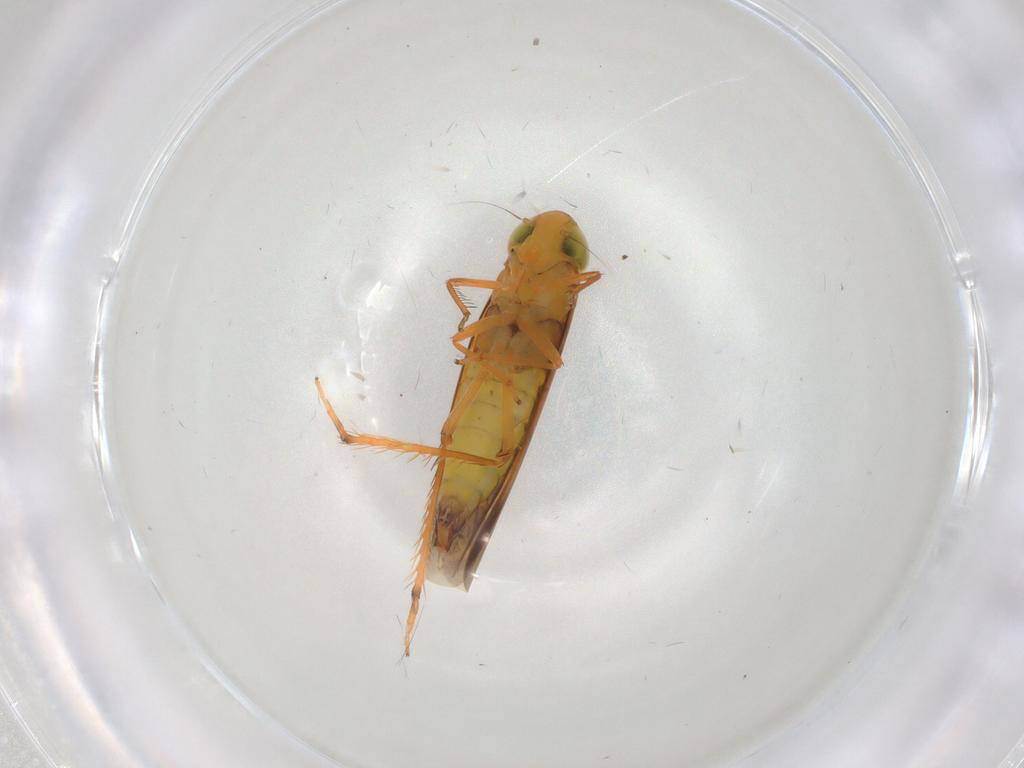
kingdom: Animalia
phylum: Arthropoda
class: Insecta
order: Hemiptera
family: Cicadellidae
